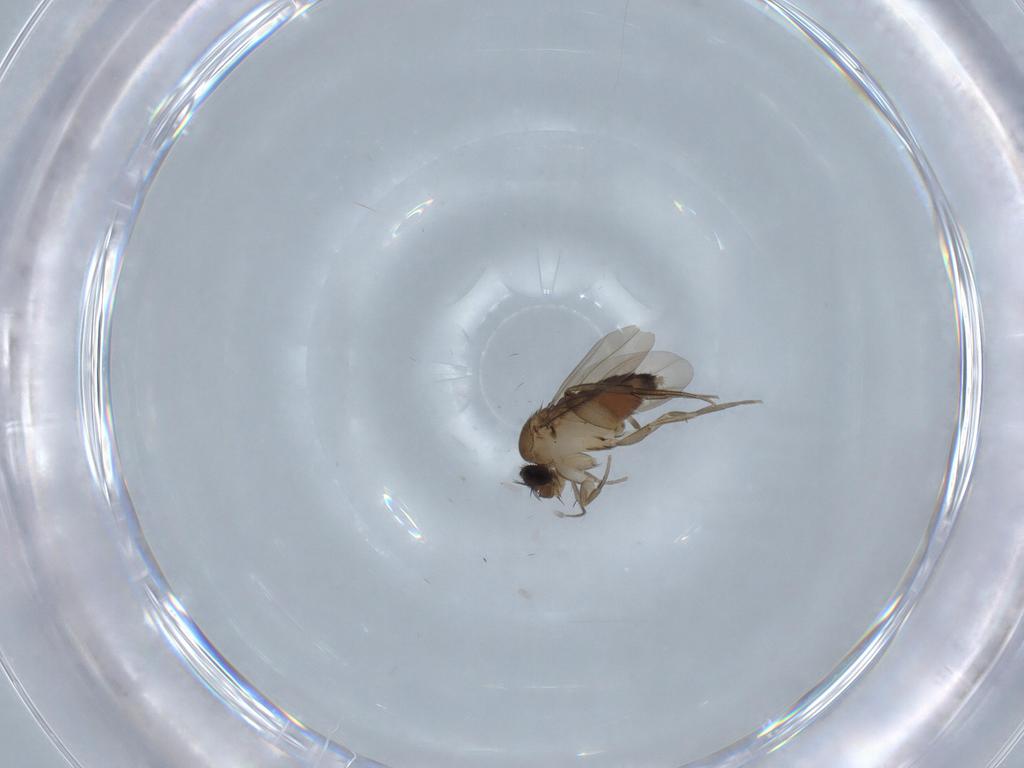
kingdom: Animalia
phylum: Arthropoda
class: Insecta
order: Diptera
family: Phoridae
